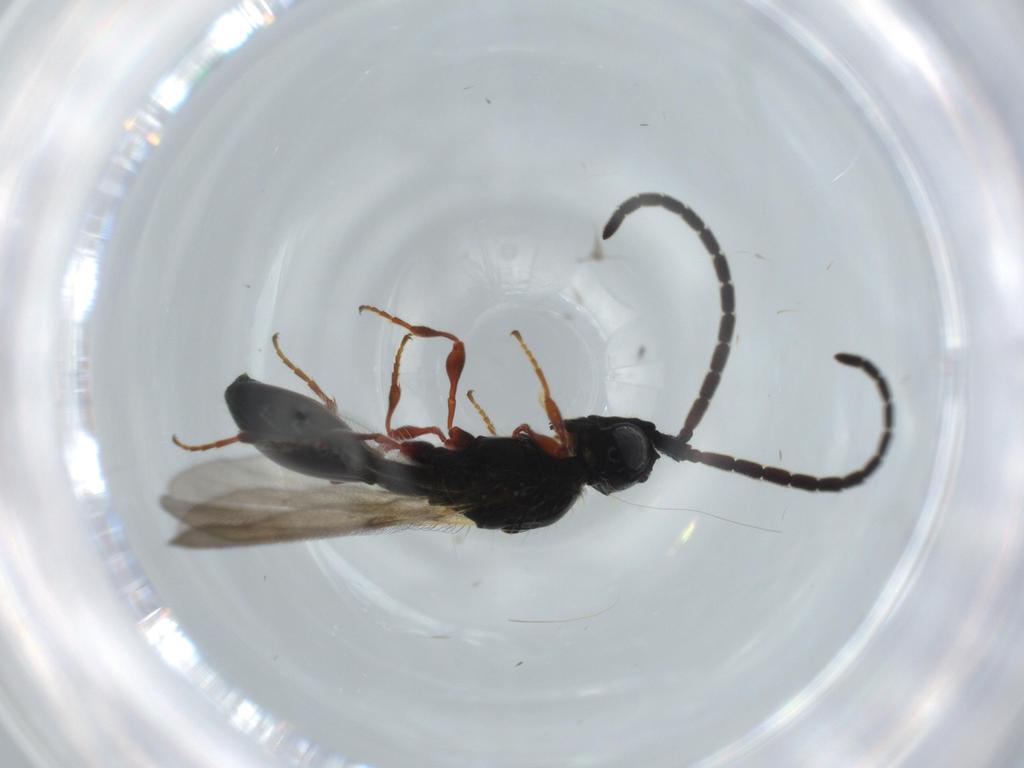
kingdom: Animalia
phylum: Arthropoda
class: Insecta
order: Hymenoptera
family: Diapriidae
